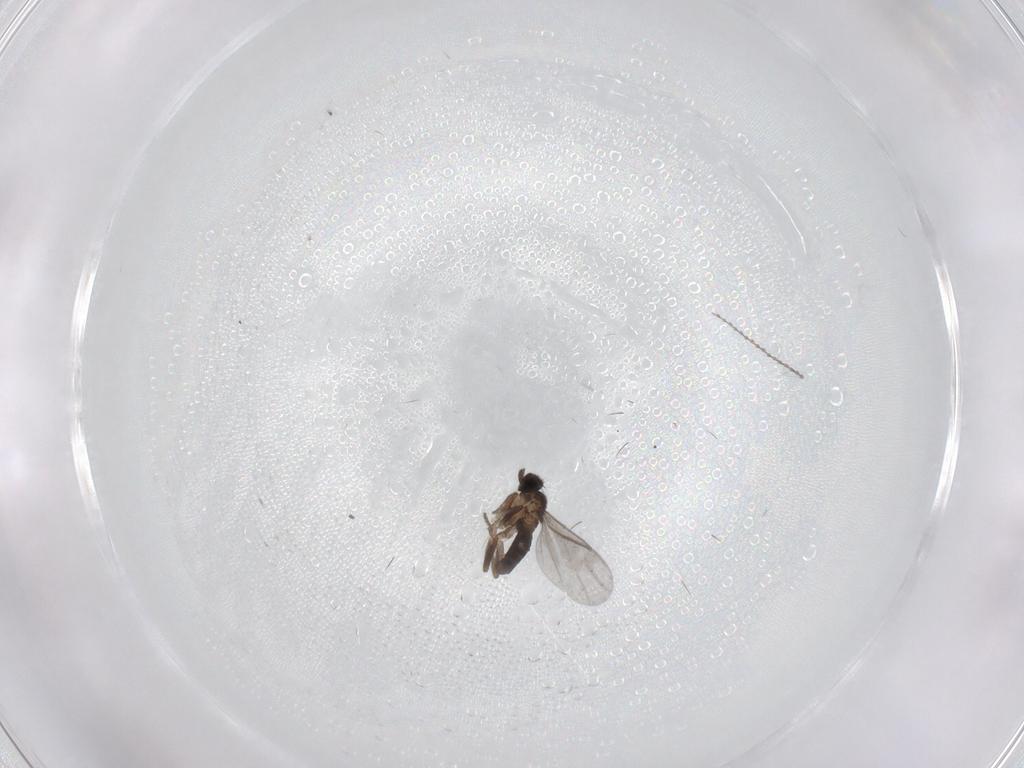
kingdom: Animalia
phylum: Arthropoda
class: Insecta
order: Diptera
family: Cecidomyiidae
